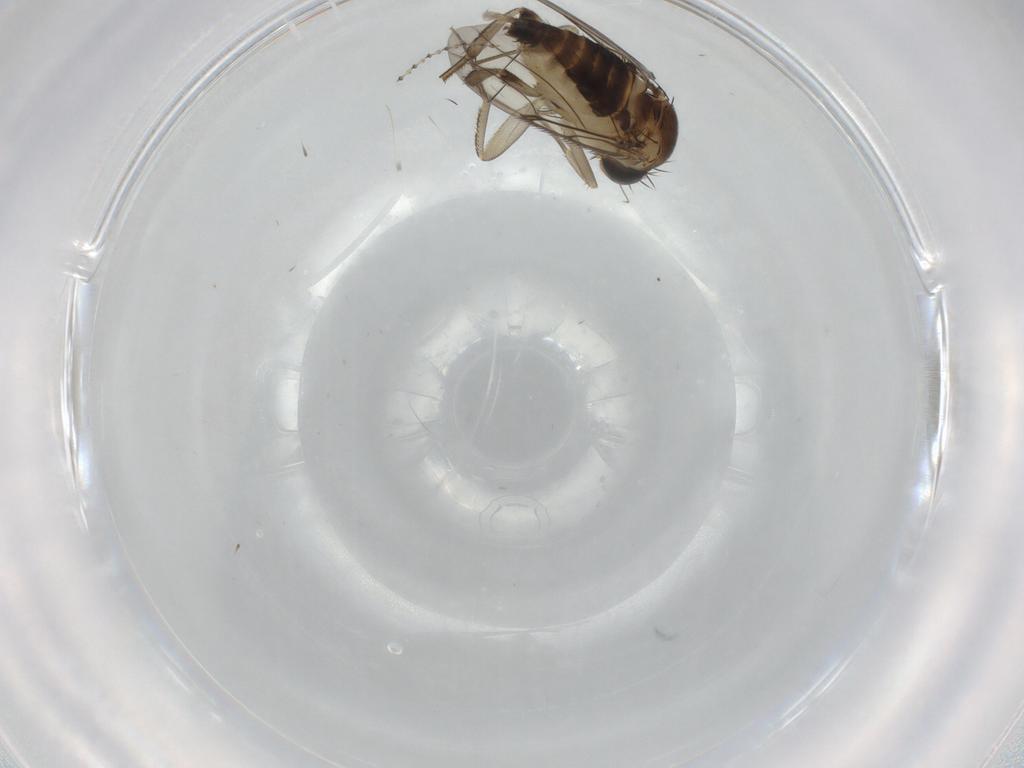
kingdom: Animalia
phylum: Arthropoda
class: Insecta
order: Diptera
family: Phoridae
